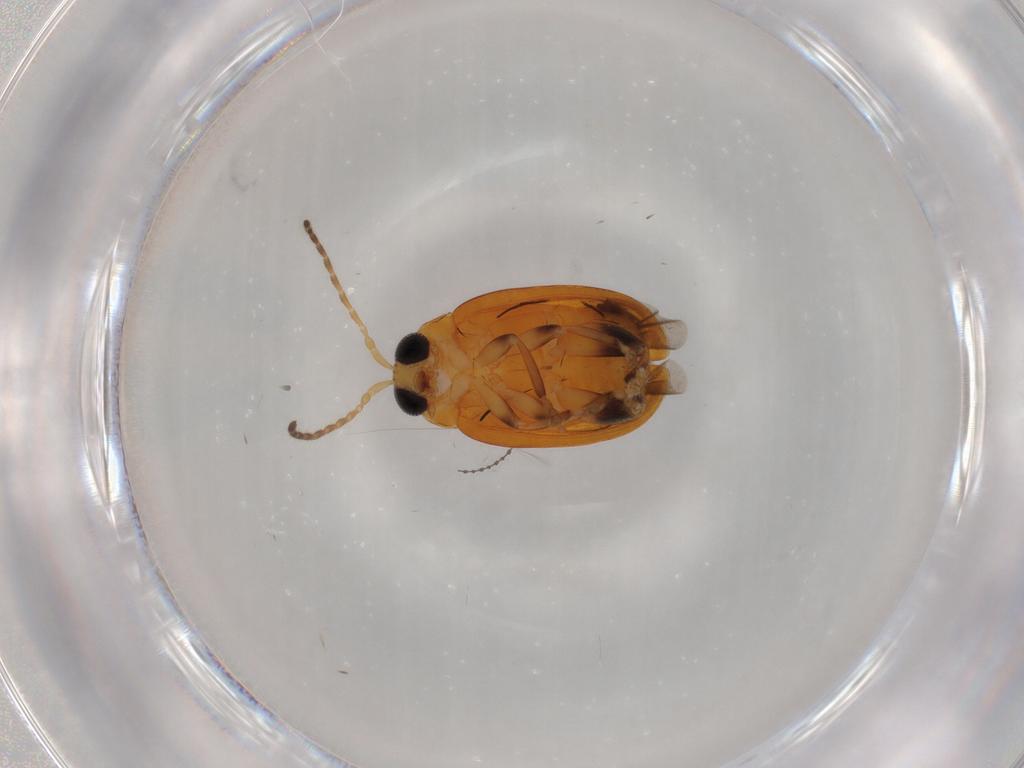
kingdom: Animalia
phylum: Arthropoda
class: Insecta
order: Coleoptera
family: Chrysomelidae
